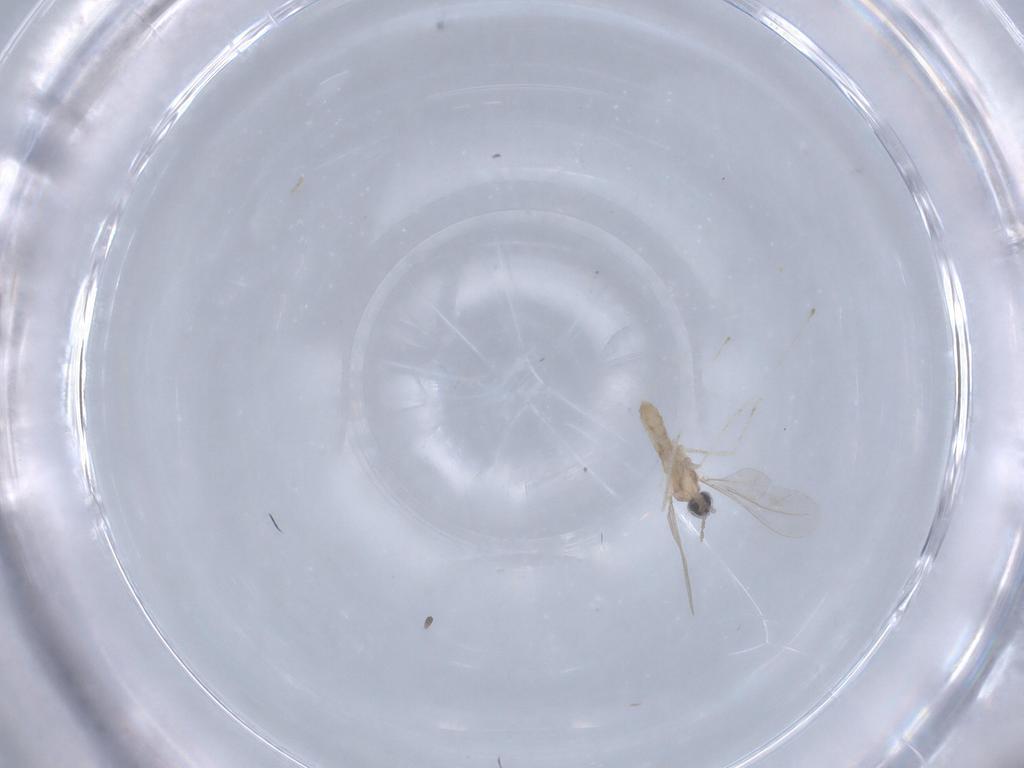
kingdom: Animalia
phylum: Arthropoda
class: Insecta
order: Diptera
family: Cecidomyiidae
